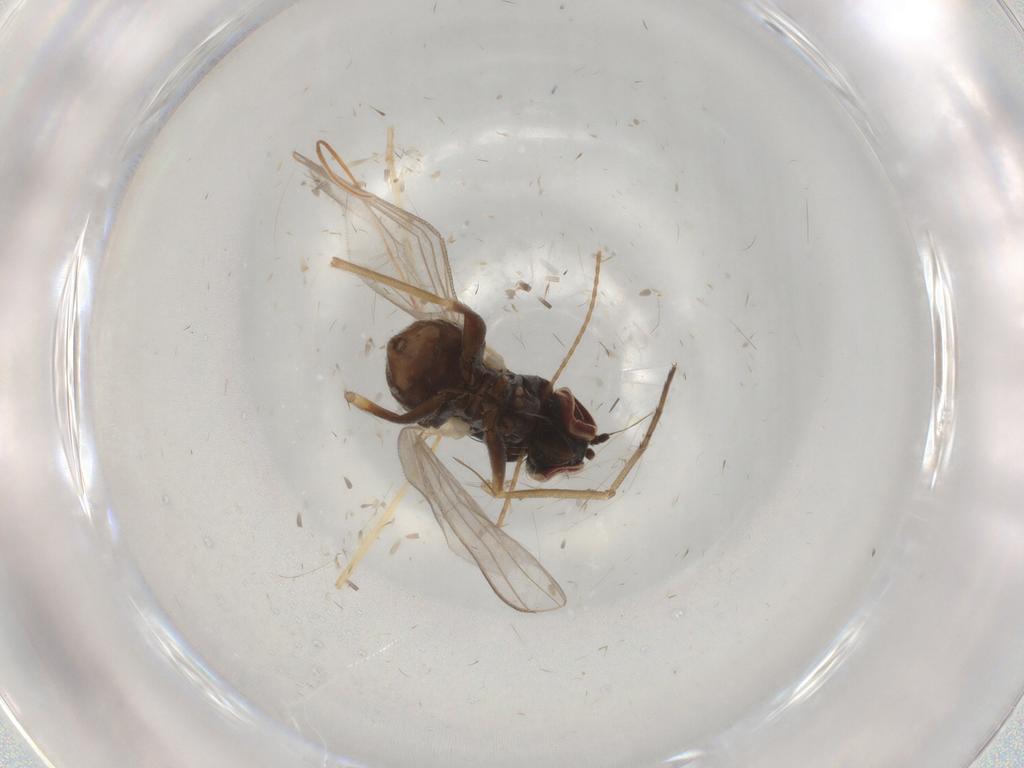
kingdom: Animalia
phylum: Arthropoda
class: Insecta
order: Diptera
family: Dolichopodidae
